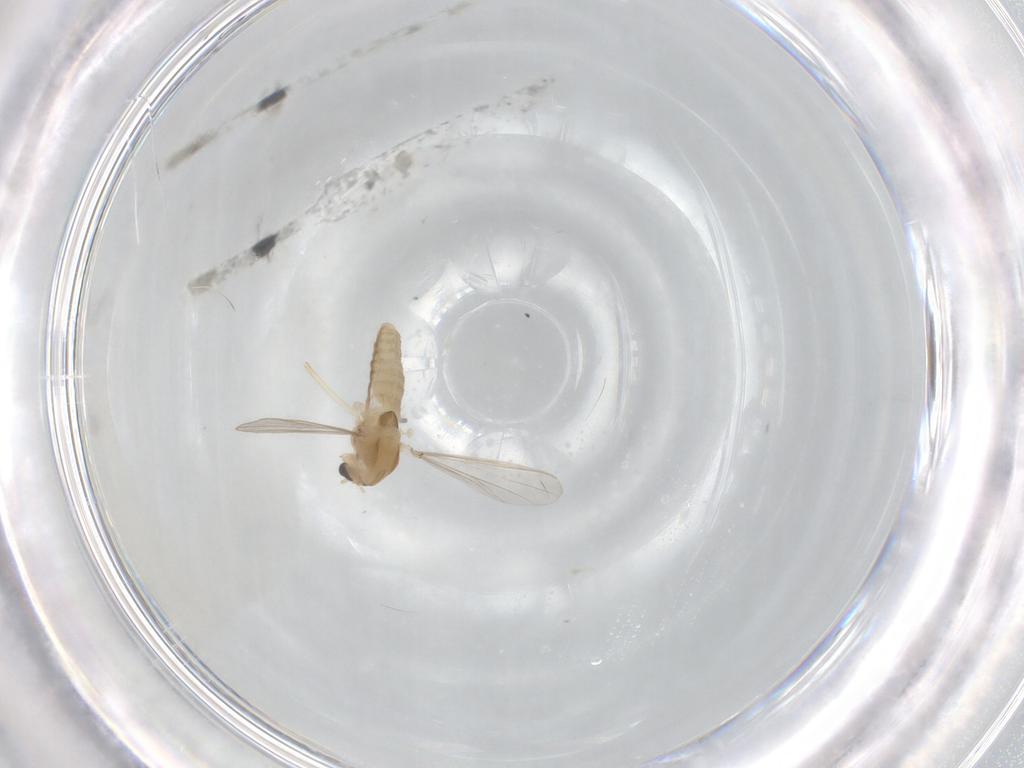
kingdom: Animalia
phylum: Arthropoda
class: Insecta
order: Diptera
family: Chironomidae
